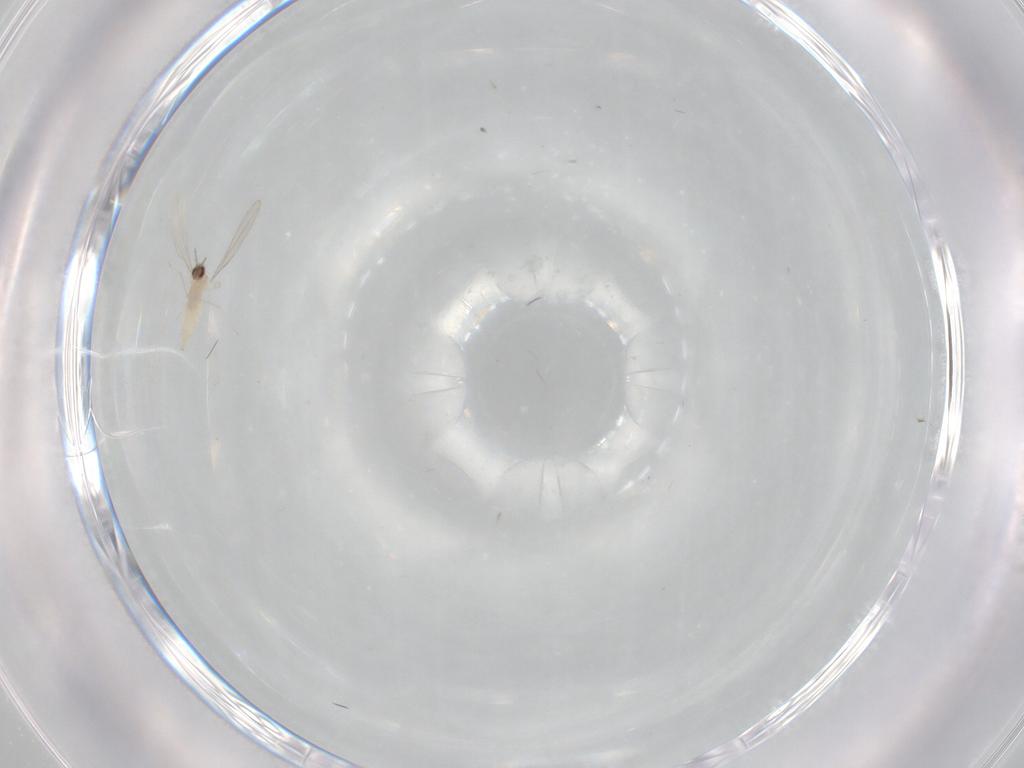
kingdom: Animalia
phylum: Arthropoda
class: Insecta
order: Diptera
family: Cecidomyiidae
